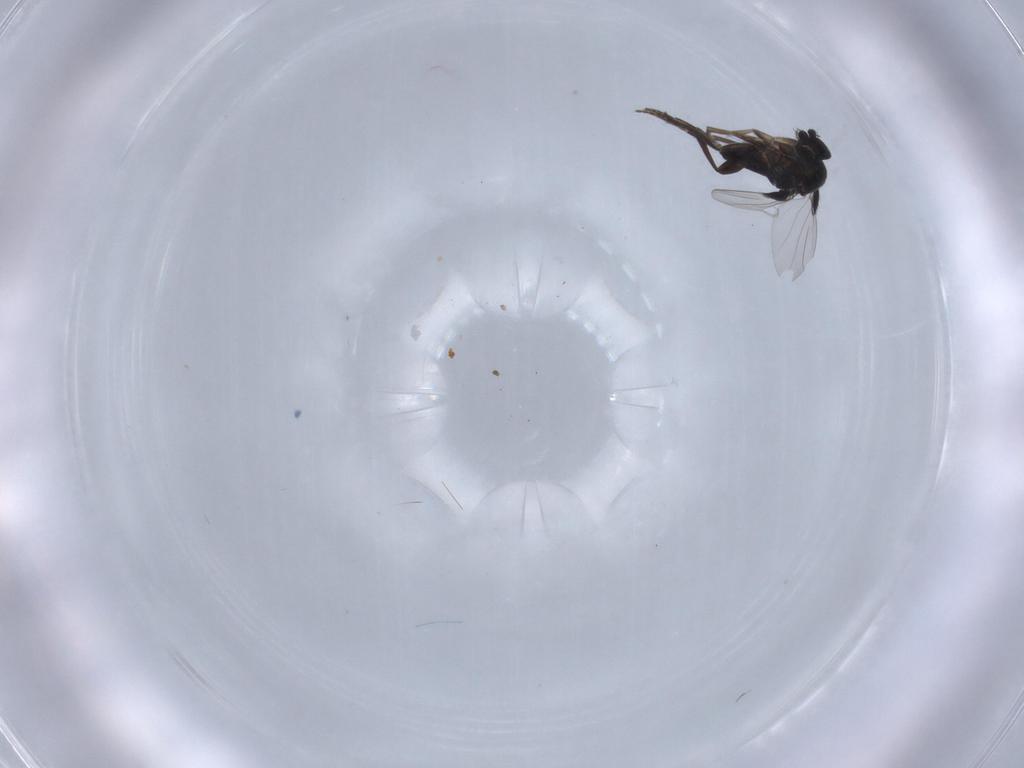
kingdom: Animalia
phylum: Arthropoda
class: Insecta
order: Diptera
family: Phoridae
